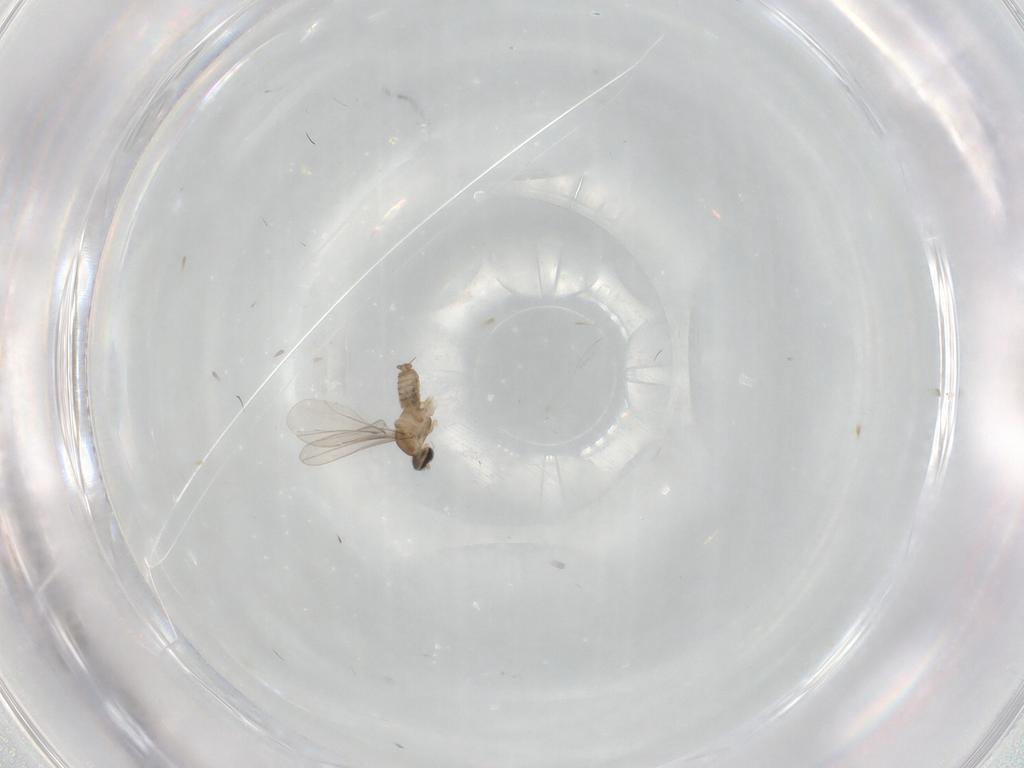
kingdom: Animalia
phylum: Arthropoda
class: Insecta
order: Diptera
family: Cecidomyiidae
